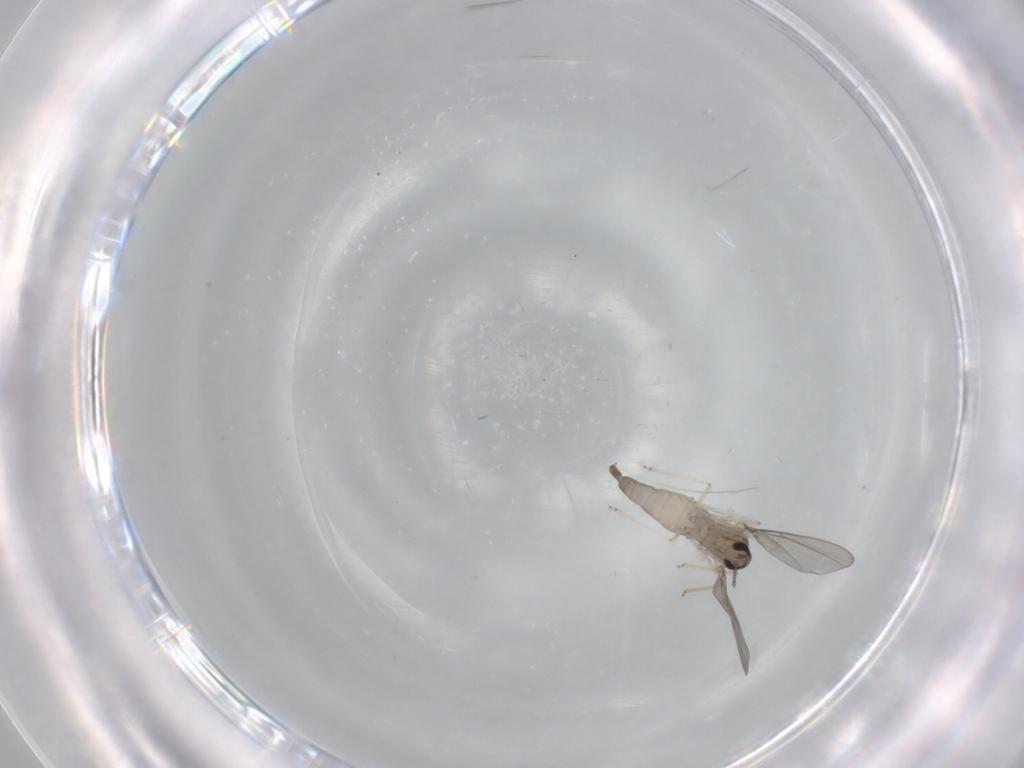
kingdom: Animalia
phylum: Arthropoda
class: Insecta
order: Diptera
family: Cecidomyiidae
